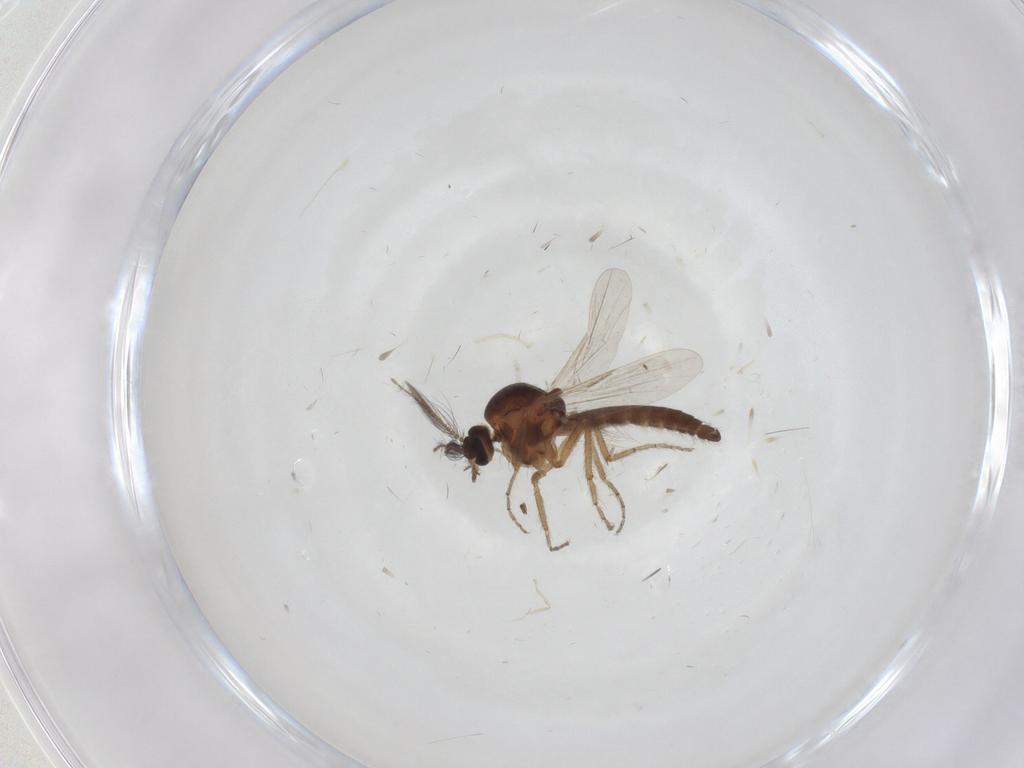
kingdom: Animalia
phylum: Arthropoda
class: Insecta
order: Diptera
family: Ceratopogonidae
